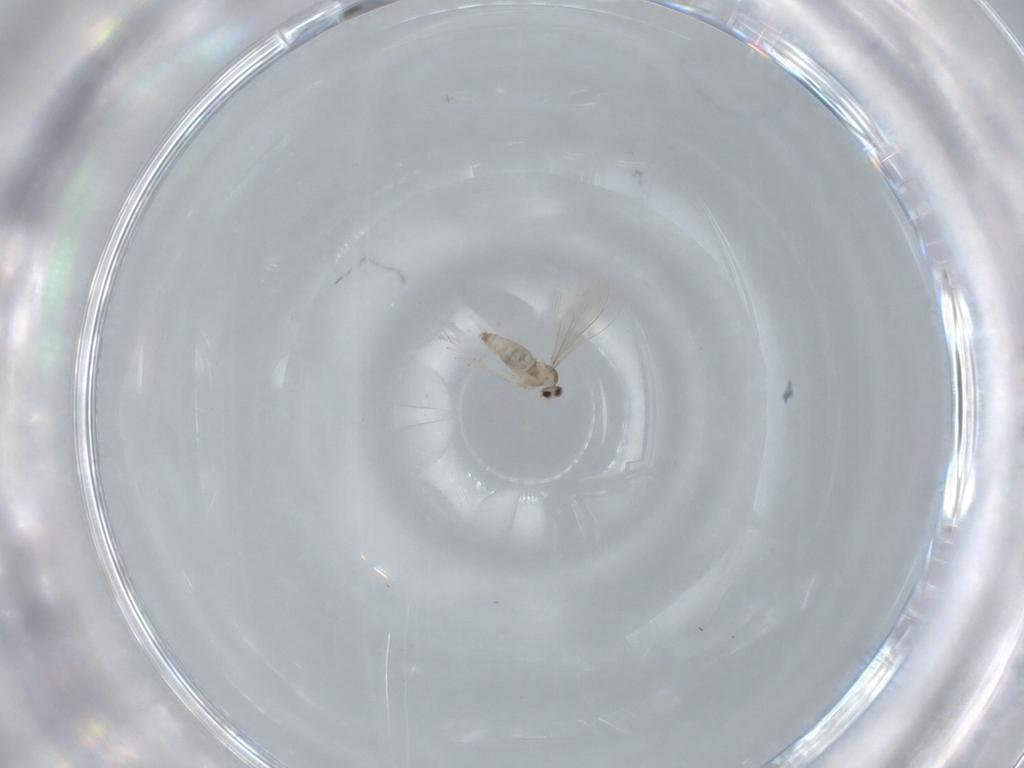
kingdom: Animalia
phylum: Arthropoda
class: Insecta
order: Diptera
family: Cecidomyiidae
